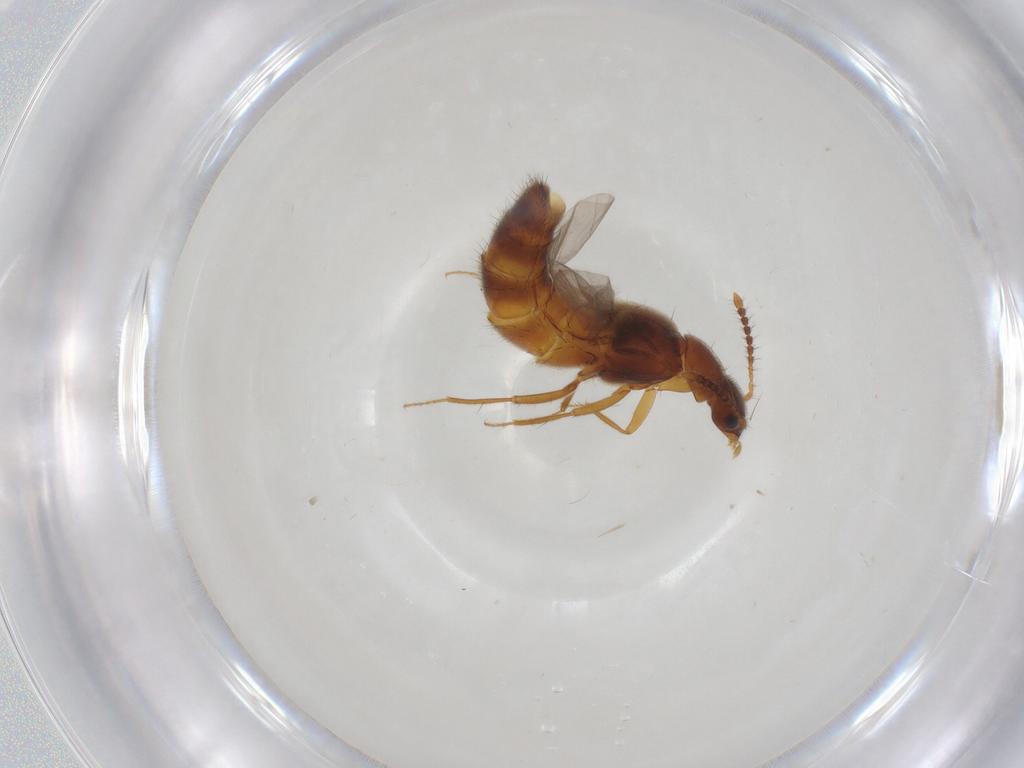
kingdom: Animalia
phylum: Arthropoda
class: Insecta
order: Coleoptera
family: Staphylinidae
